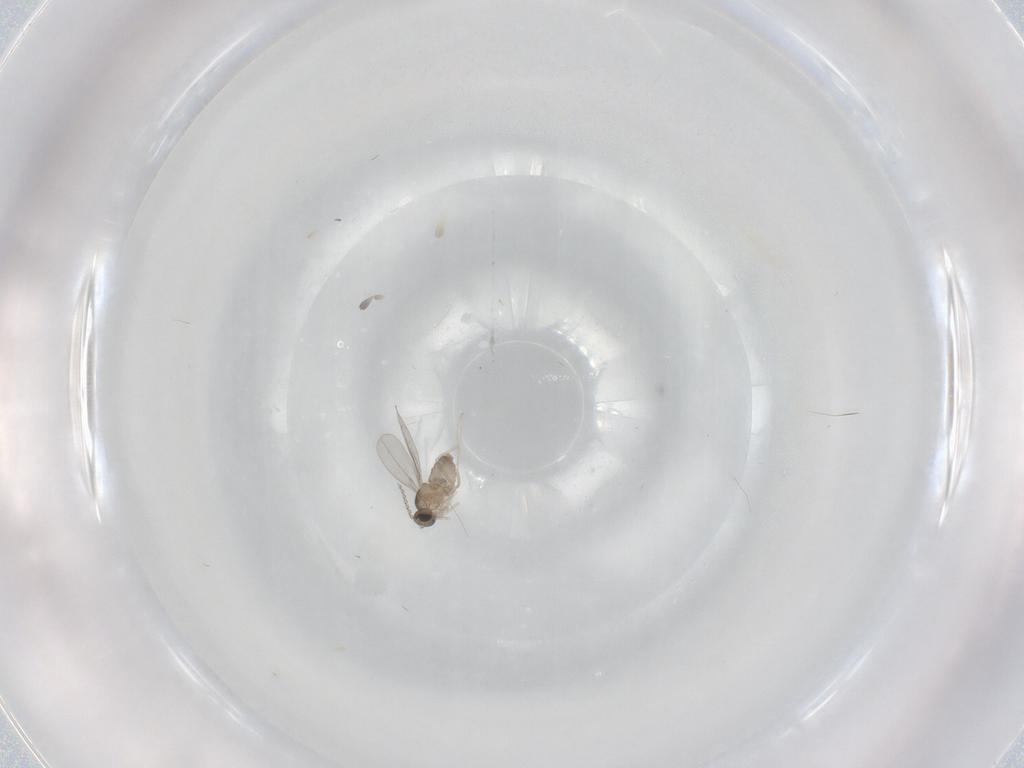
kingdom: Animalia
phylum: Arthropoda
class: Insecta
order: Diptera
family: Cecidomyiidae
